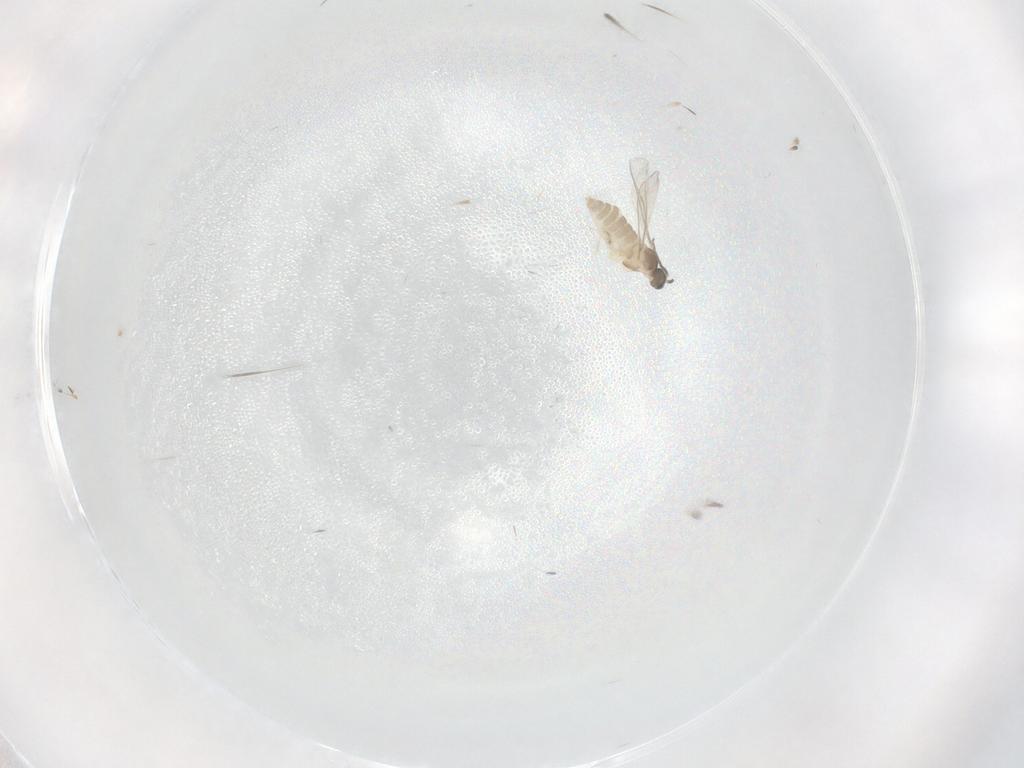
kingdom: Animalia
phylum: Arthropoda
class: Insecta
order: Diptera
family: Cecidomyiidae
